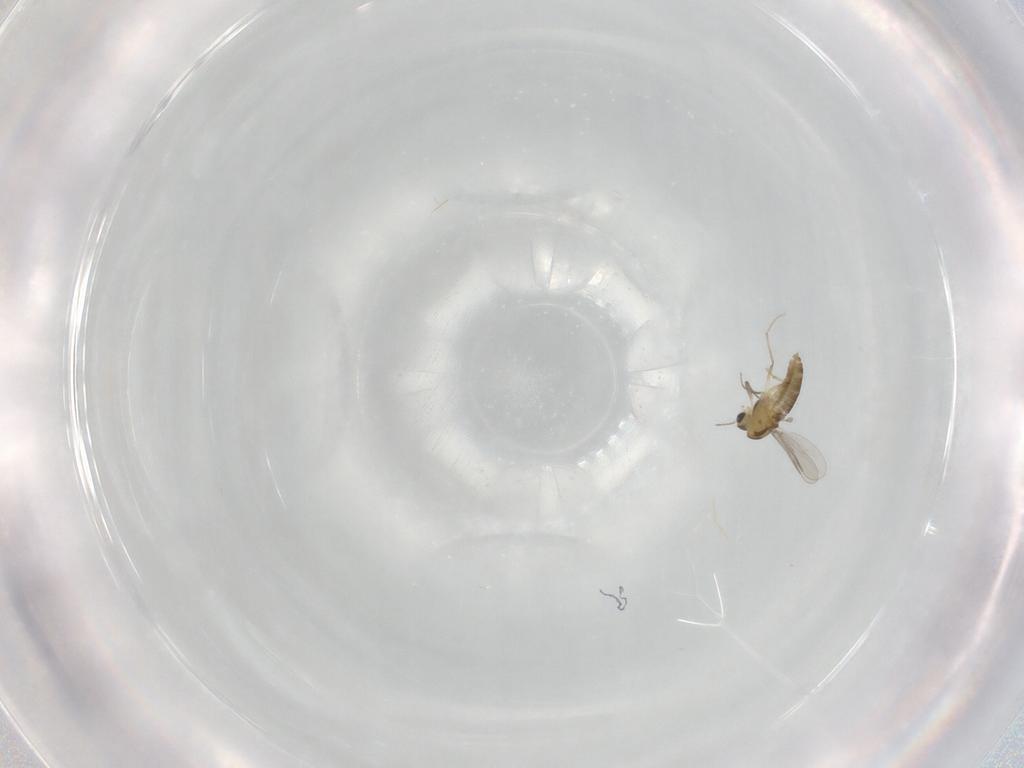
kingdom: Animalia
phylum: Arthropoda
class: Insecta
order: Diptera
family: Chironomidae
